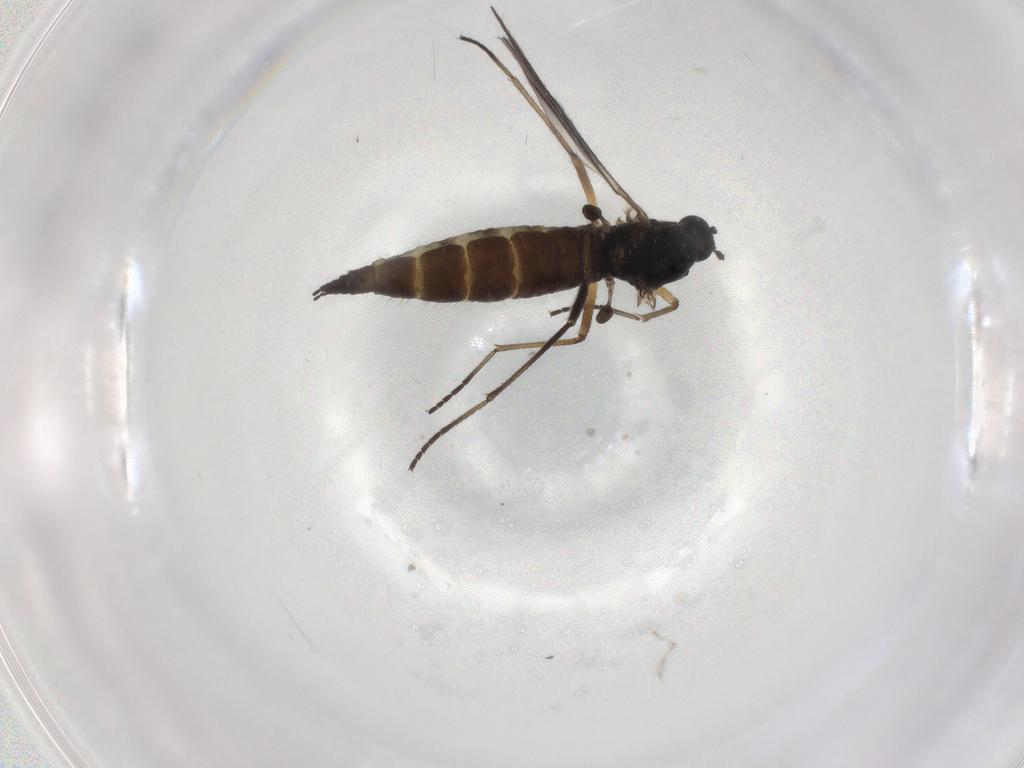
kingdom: Animalia
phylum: Arthropoda
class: Insecta
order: Diptera
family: Sciaridae
